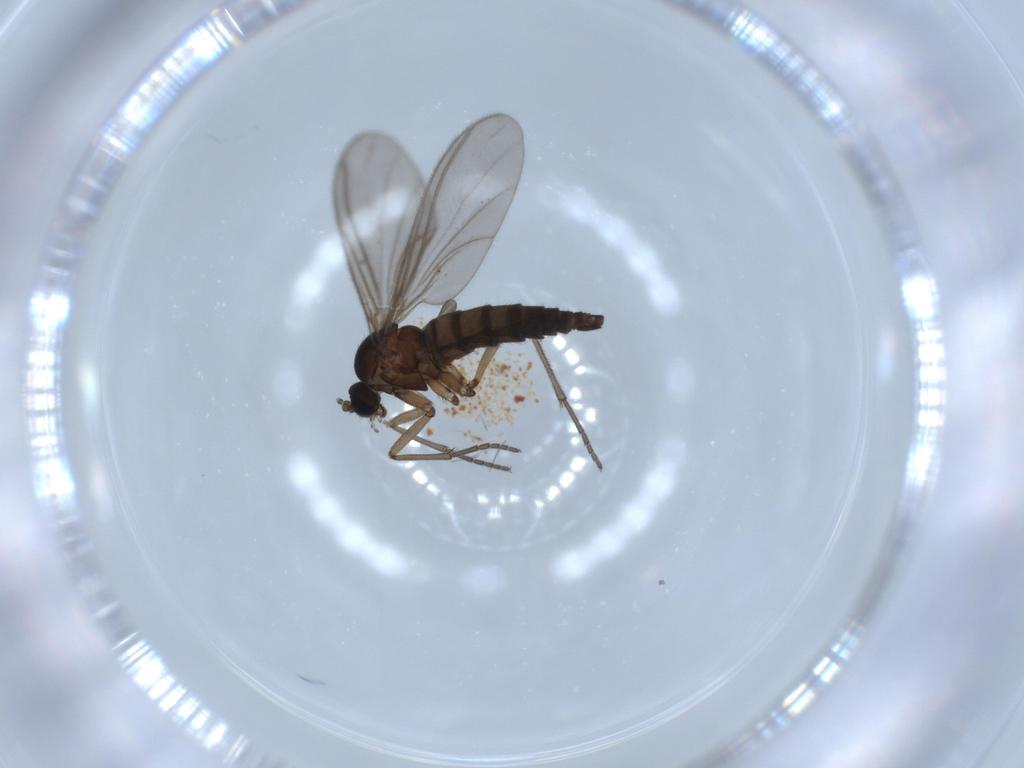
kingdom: Animalia
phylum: Arthropoda
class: Insecta
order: Diptera
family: Sciaridae
